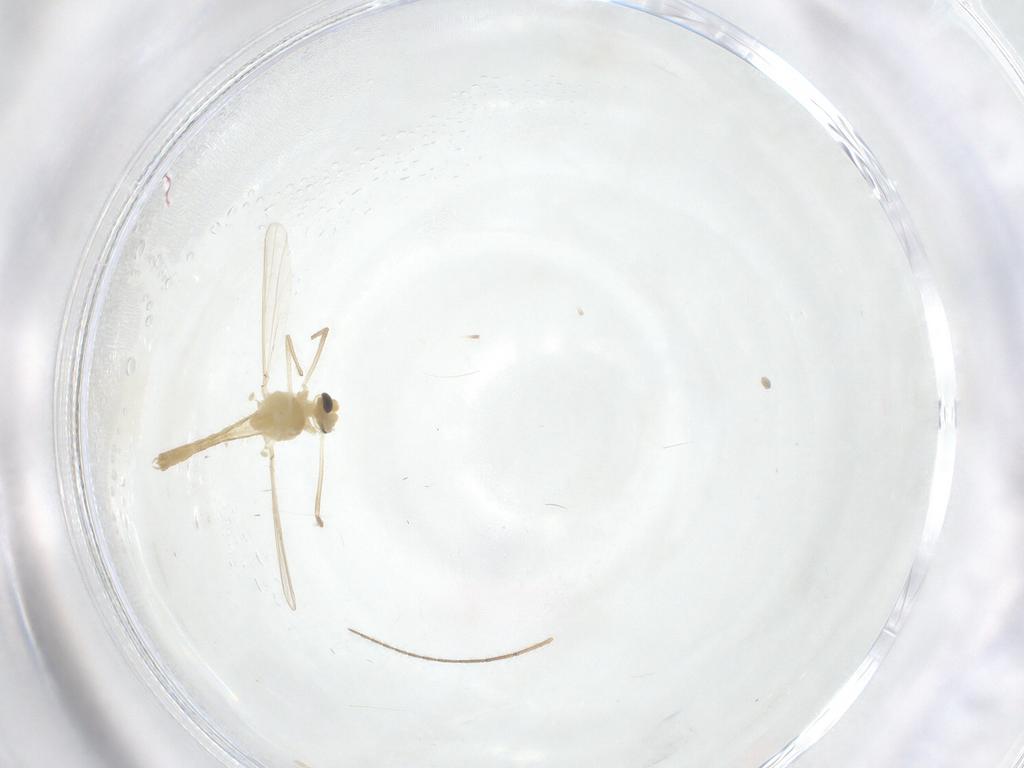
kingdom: Animalia
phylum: Arthropoda
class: Insecta
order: Diptera
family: Chironomidae
